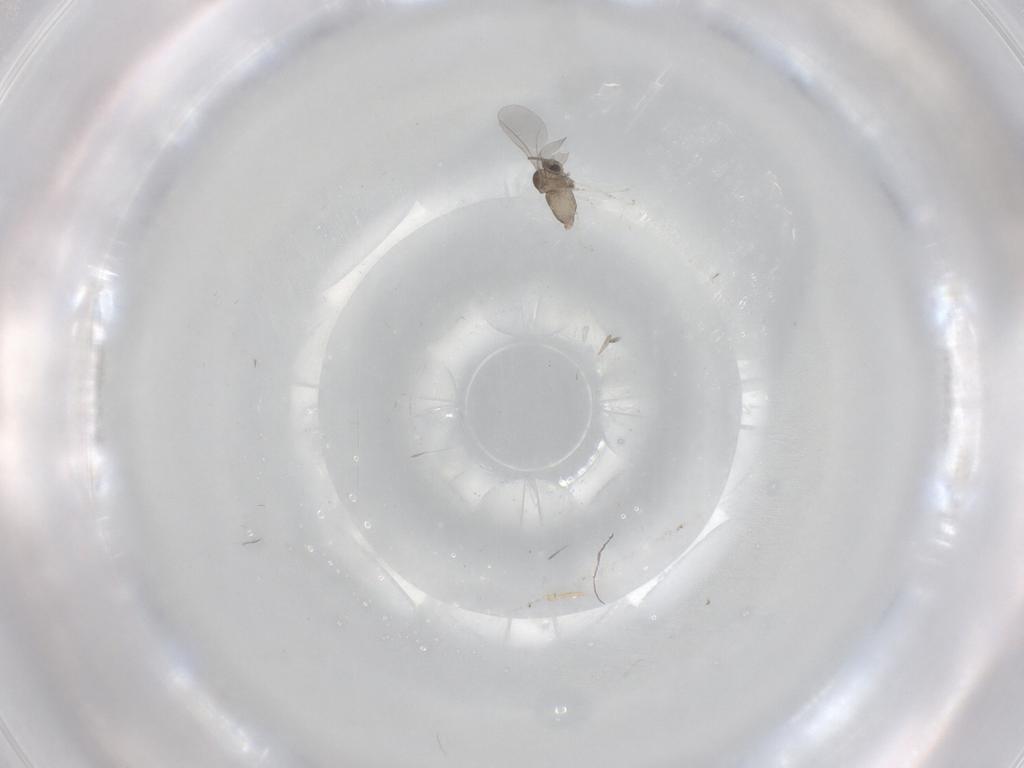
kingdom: Animalia
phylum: Arthropoda
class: Insecta
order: Diptera
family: Cecidomyiidae
